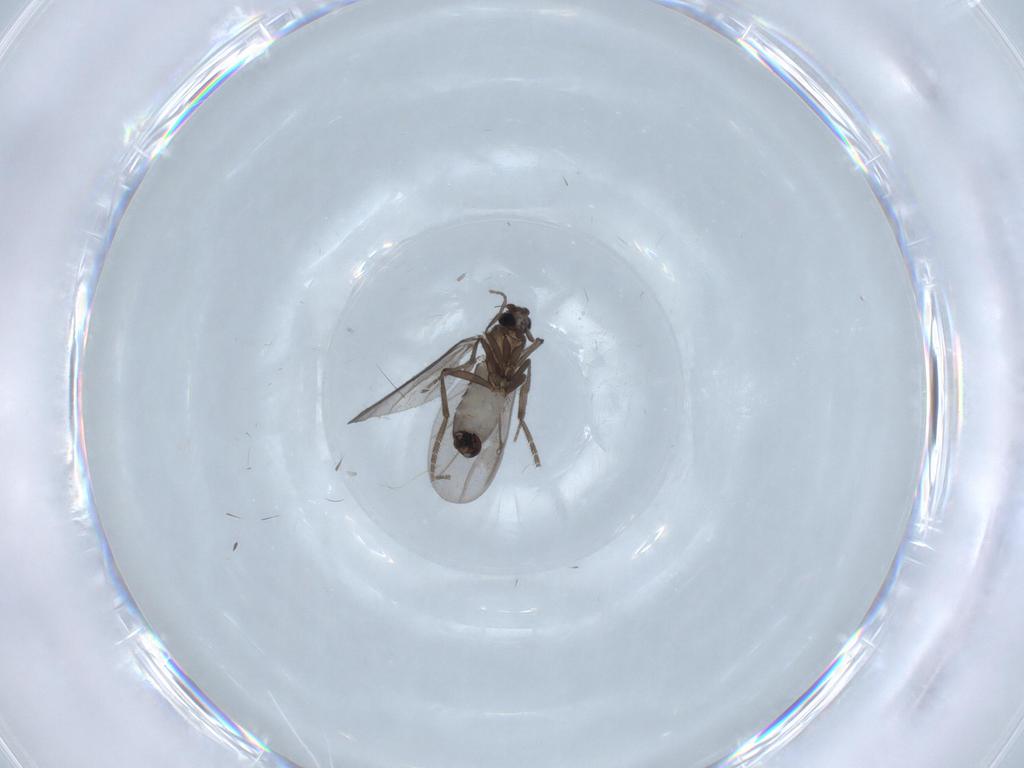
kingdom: Animalia
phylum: Arthropoda
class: Insecta
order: Diptera
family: Phoridae
